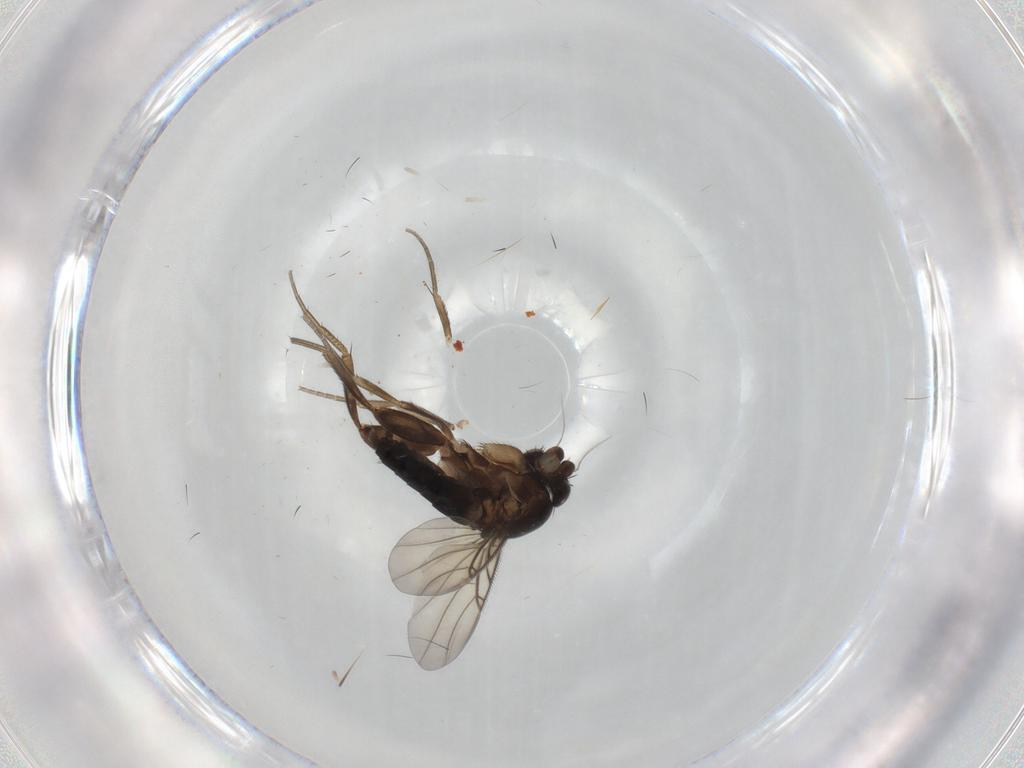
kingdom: Animalia
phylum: Arthropoda
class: Insecta
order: Diptera
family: Phoridae
